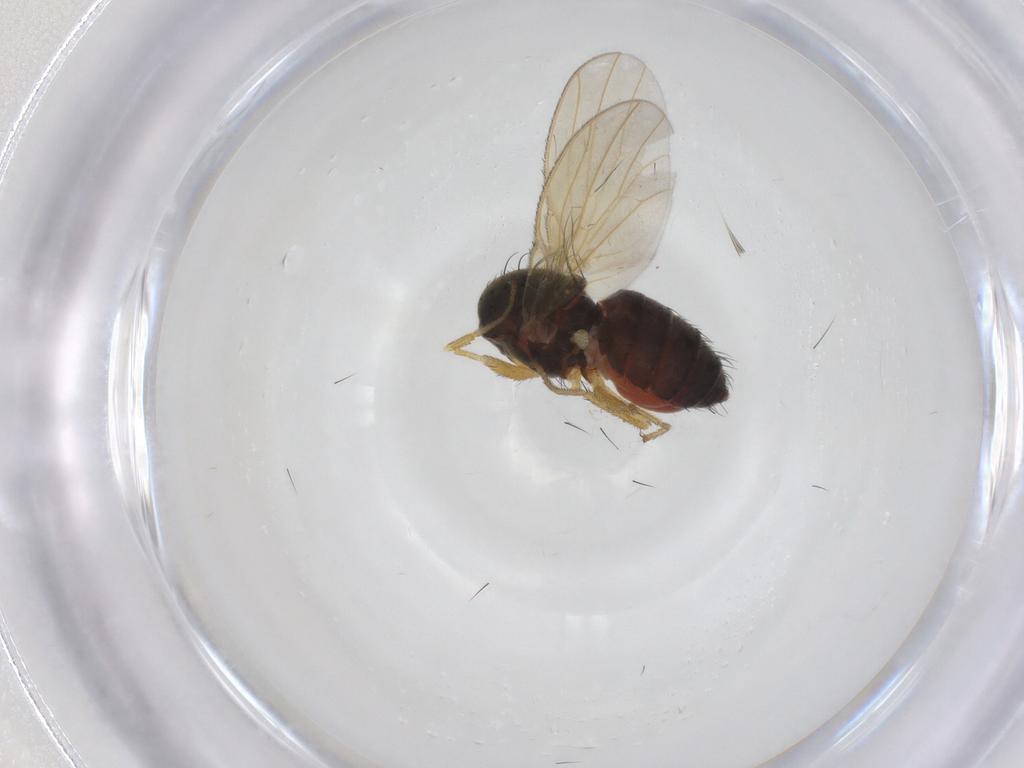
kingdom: Animalia
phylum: Arthropoda
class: Insecta
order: Diptera
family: Heleomyzidae
